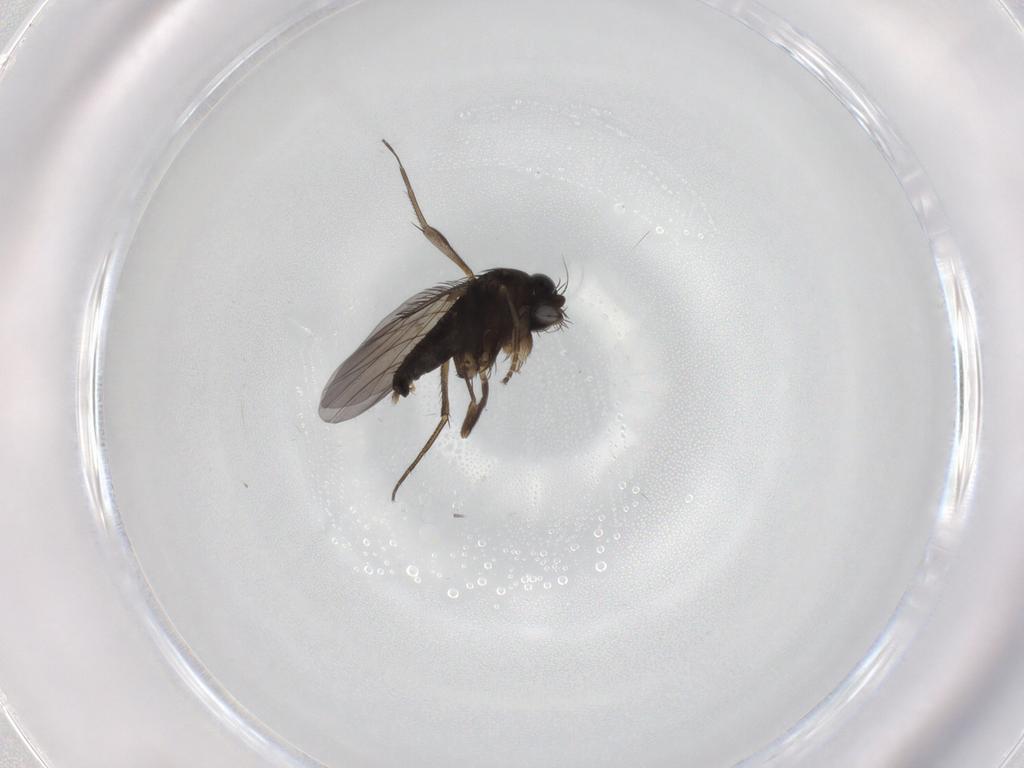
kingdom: Animalia
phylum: Arthropoda
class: Insecta
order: Diptera
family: Phoridae
